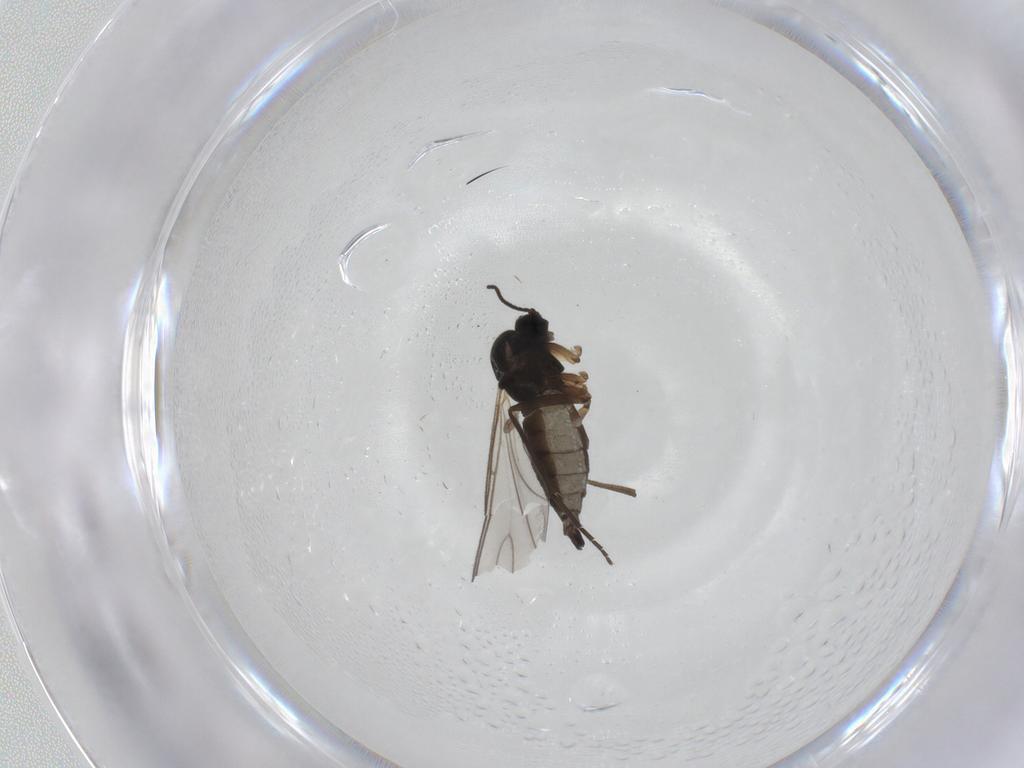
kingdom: Animalia
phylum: Arthropoda
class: Insecta
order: Diptera
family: Sciaridae
